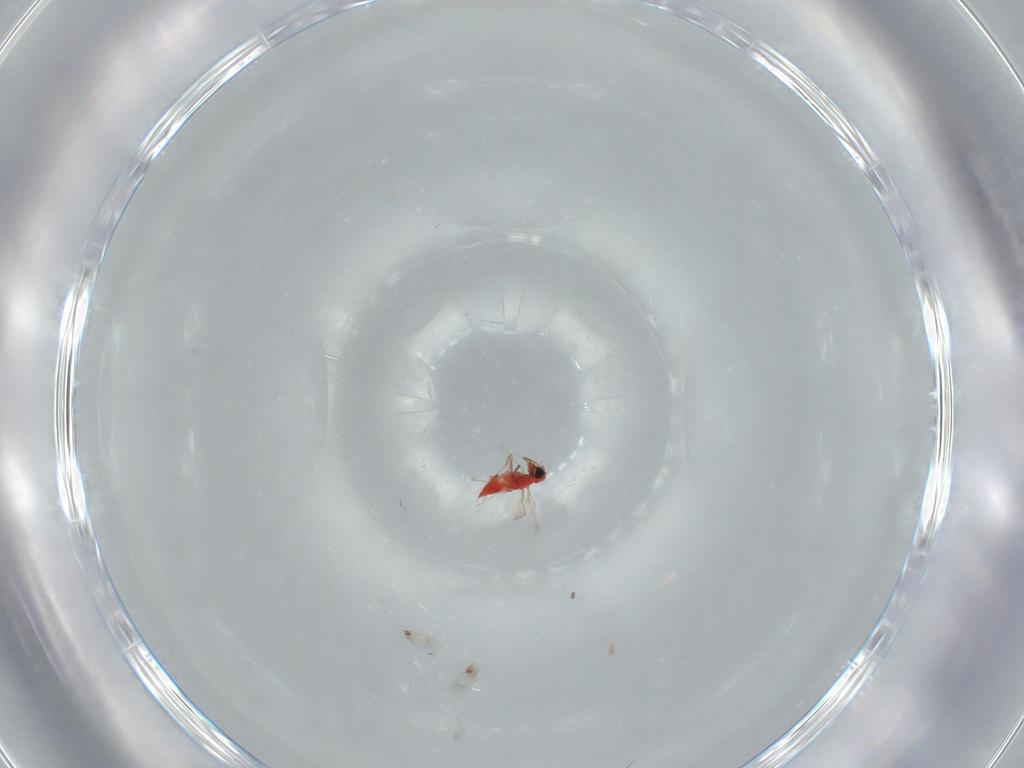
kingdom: Animalia
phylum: Arthropoda
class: Insecta
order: Hymenoptera
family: Trichogrammatidae
